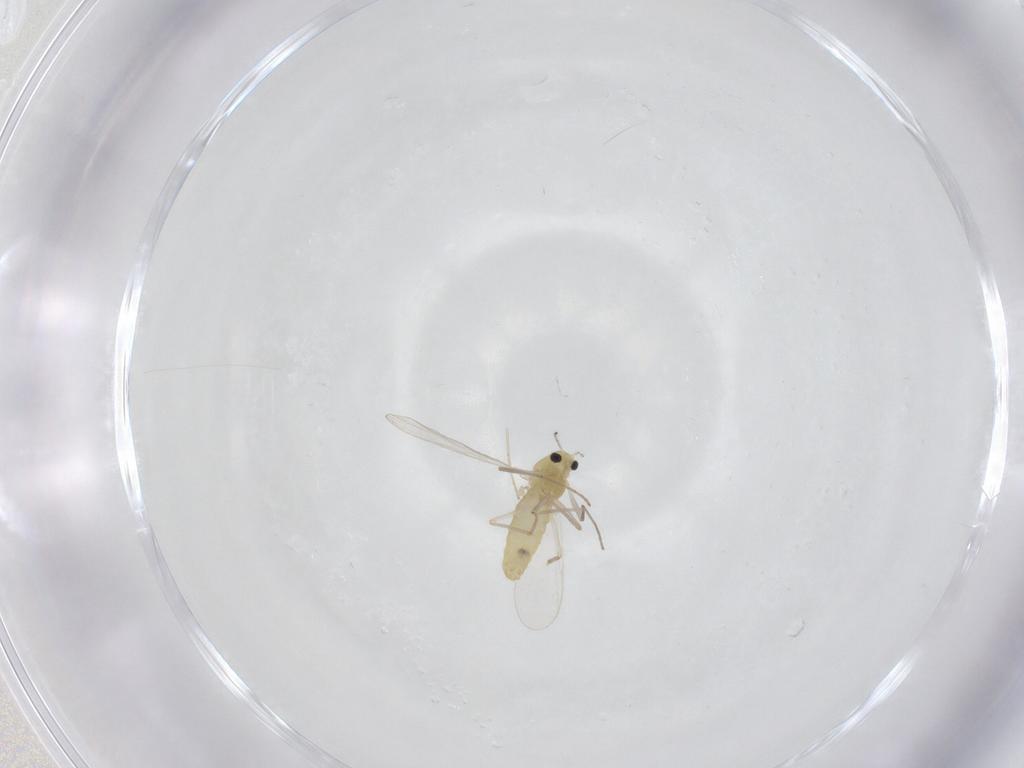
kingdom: Animalia
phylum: Arthropoda
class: Insecta
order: Diptera
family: Chironomidae
